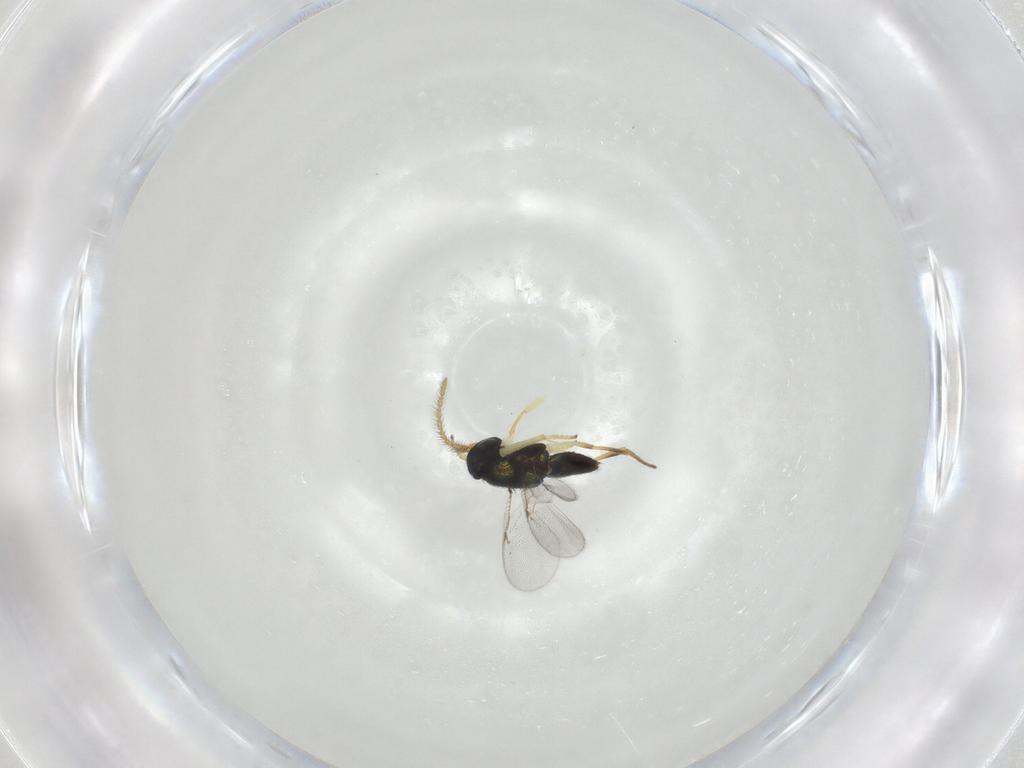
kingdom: Animalia
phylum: Arthropoda
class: Insecta
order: Hymenoptera
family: Encyrtidae
